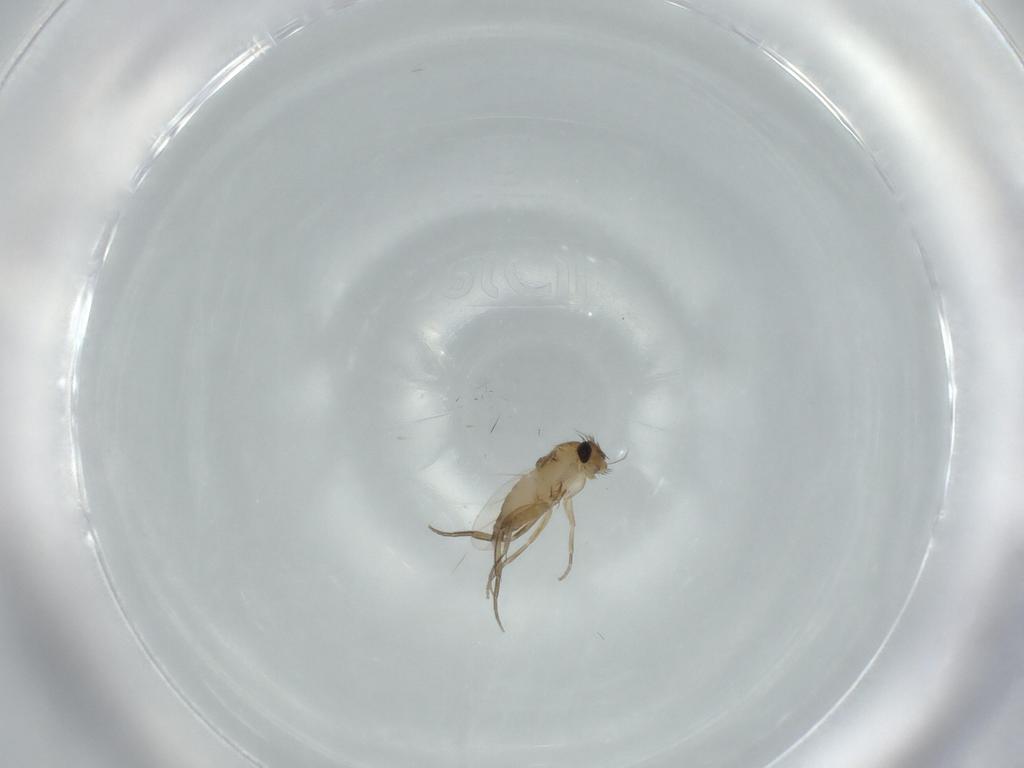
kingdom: Animalia
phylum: Arthropoda
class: Insecta
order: Diptera
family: Phoridae
